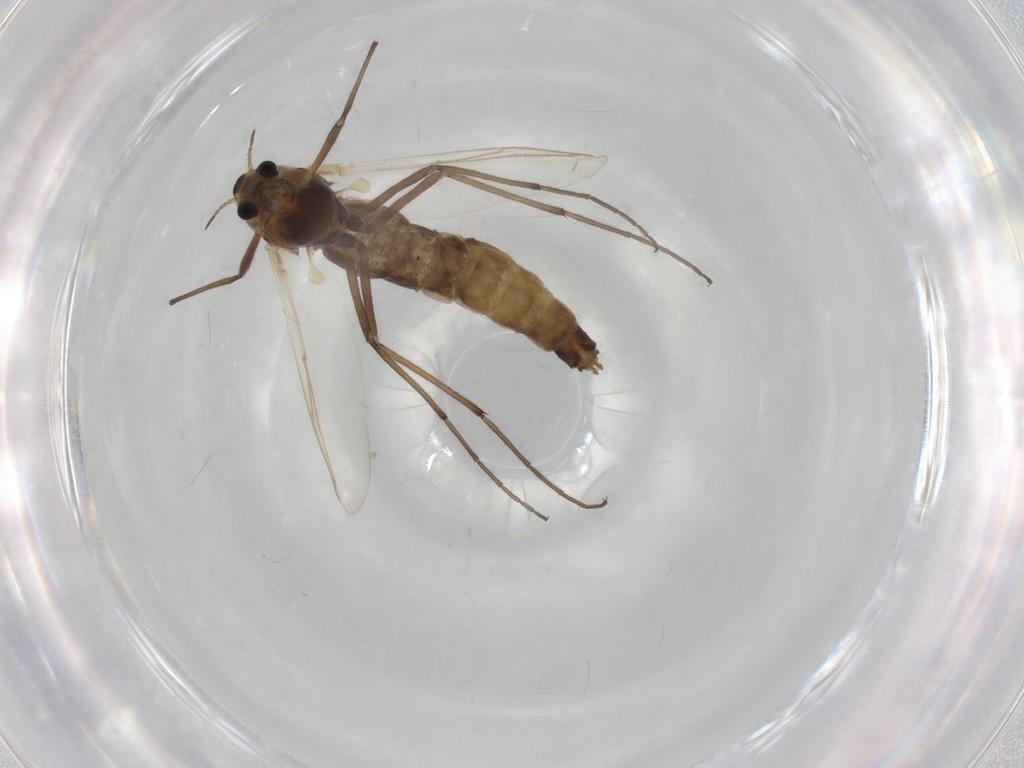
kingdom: Animalia
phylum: Arthropoda
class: Insecta
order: Diptera
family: Chironomidae
